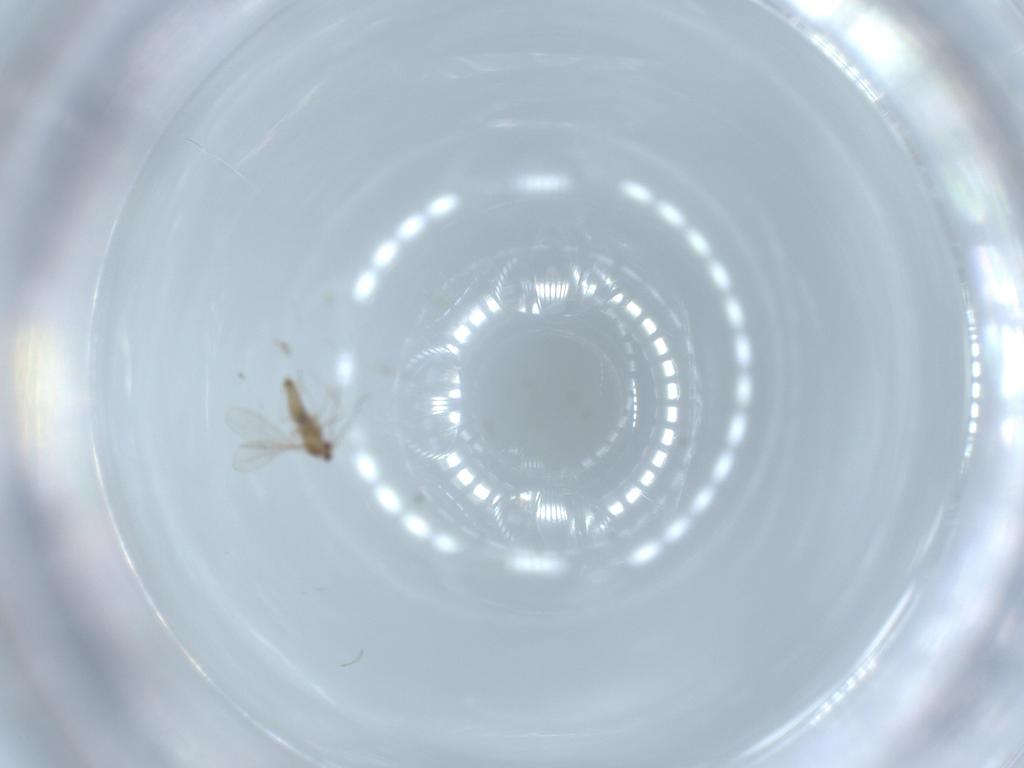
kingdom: Animalia
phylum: Arthropoda
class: Insecta
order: Diptera
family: Cecidomyiidae
